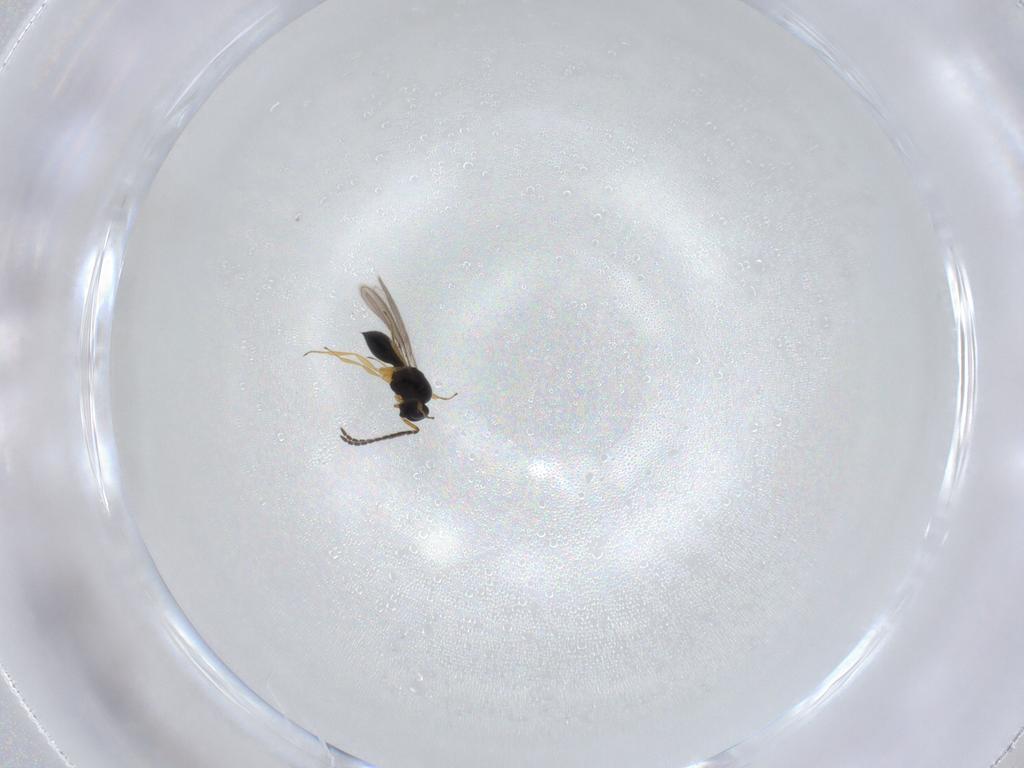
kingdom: Animalia
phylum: Arthropoda
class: Insecta
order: Hymenoptera
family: Scelionidae
